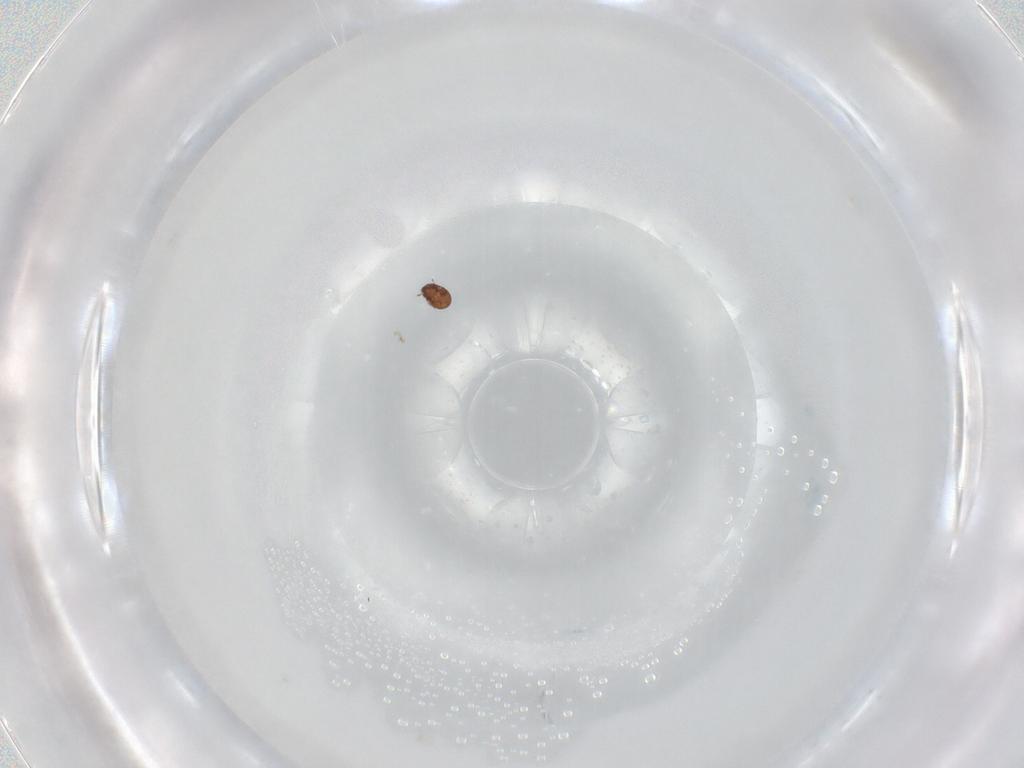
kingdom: Animalia
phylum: Arthropoda
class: Arachnida
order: Sarcoptiformes
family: Tectocepheidae
